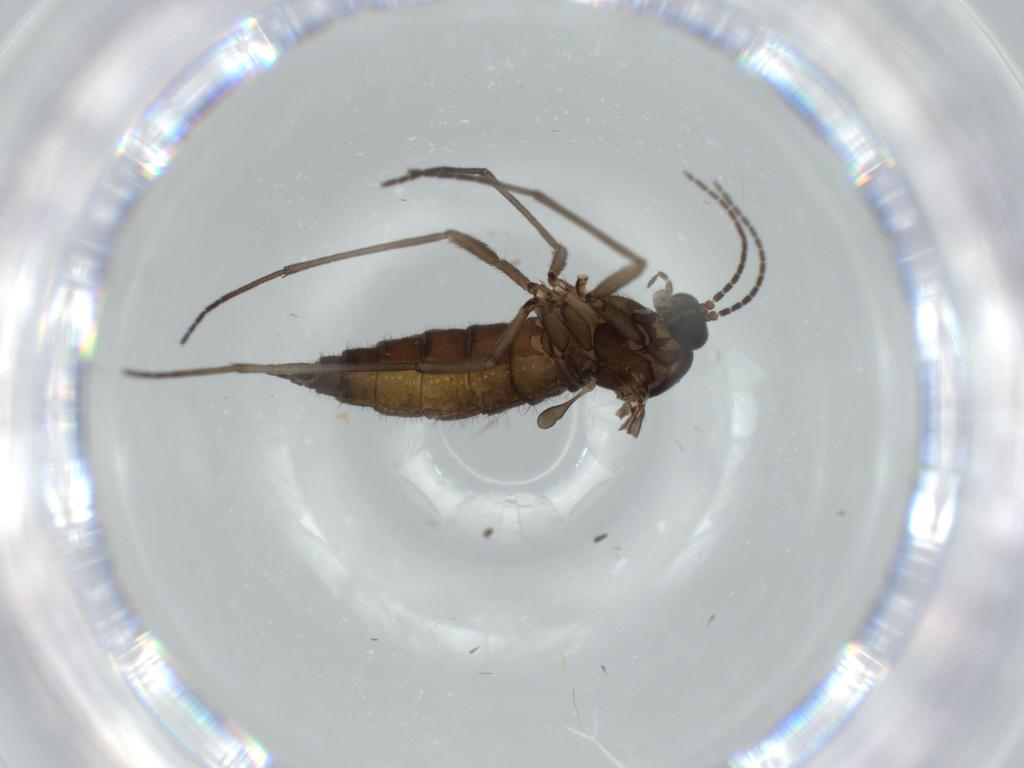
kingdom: Animalia
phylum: Arthropoda
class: Insecta
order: Diptera
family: Sciaridae
